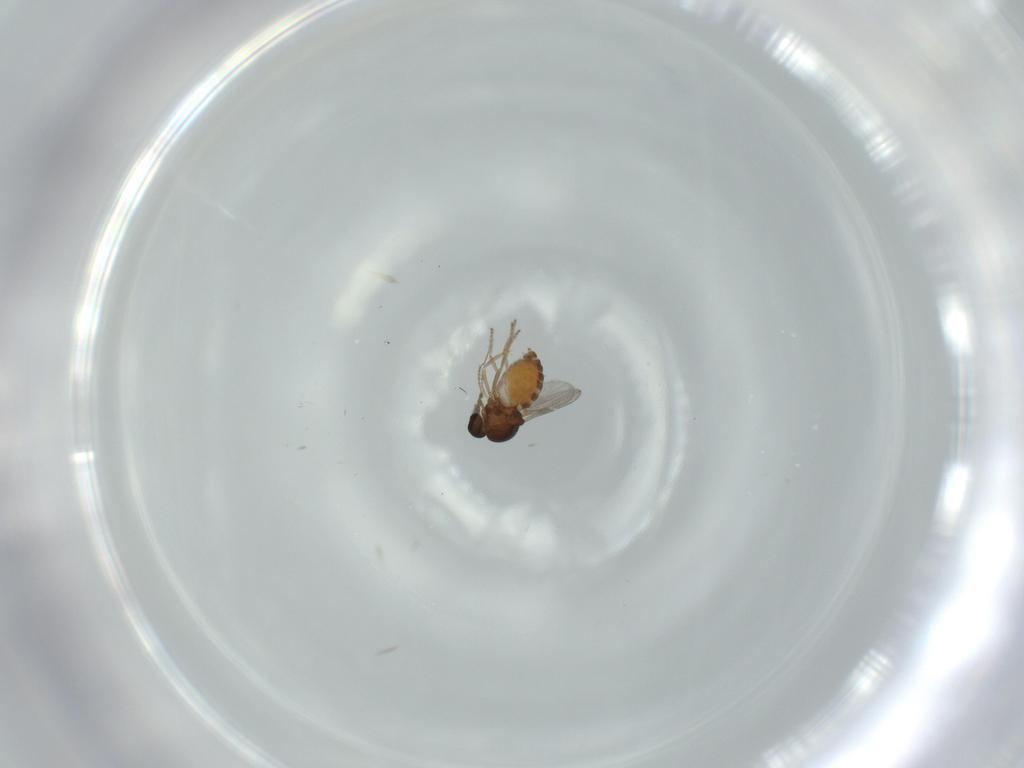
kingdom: Animalia
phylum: Arthropoda
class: Insecta
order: Diptera
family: Ceratopogonidae
